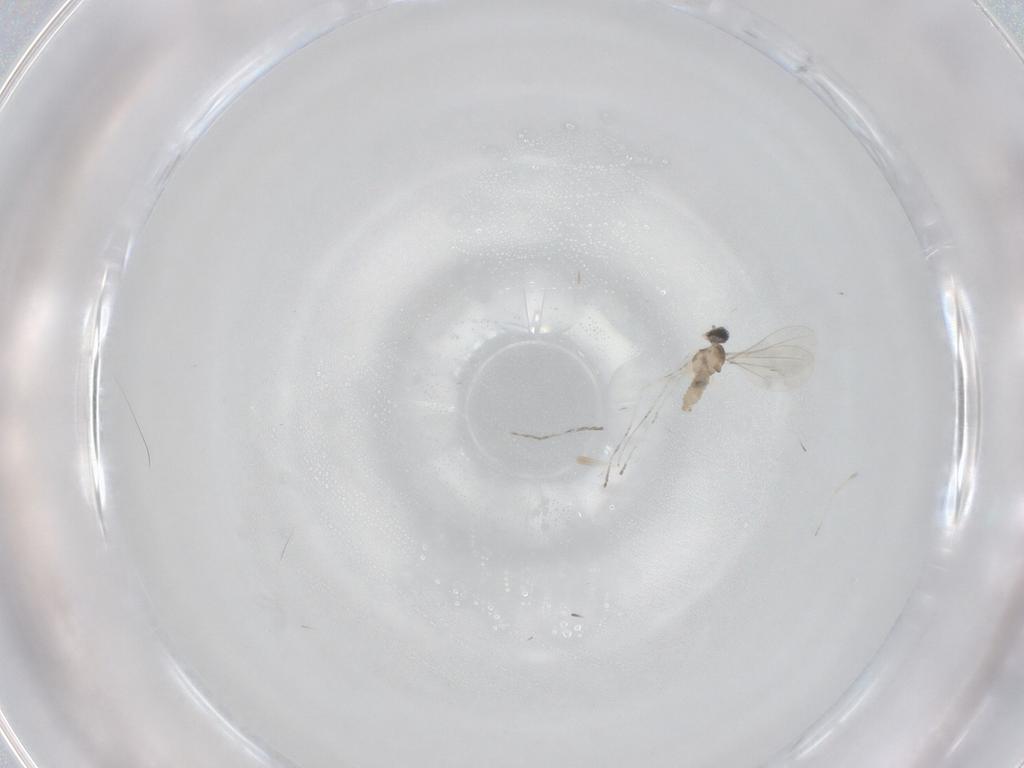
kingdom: Animalia
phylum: Arthropoda
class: Insecta
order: Diptera
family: Cecidomyiidae
